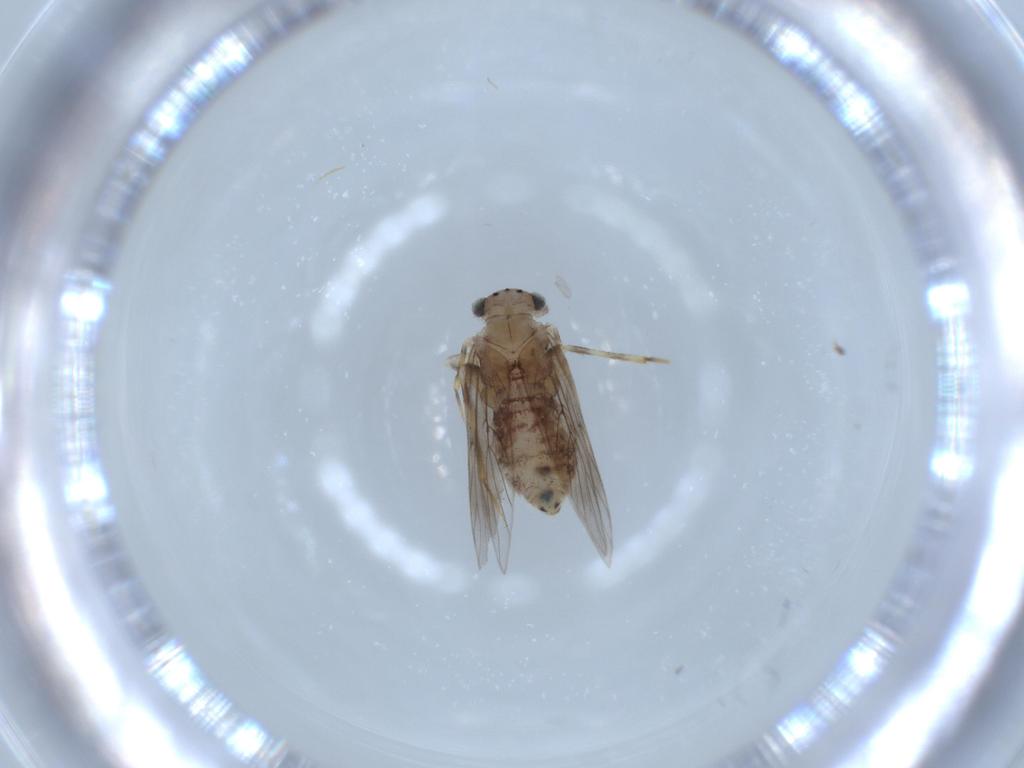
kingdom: Animalia
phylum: Arthropoda
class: Insecta
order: Psocodea
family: Lepidopsocidae
